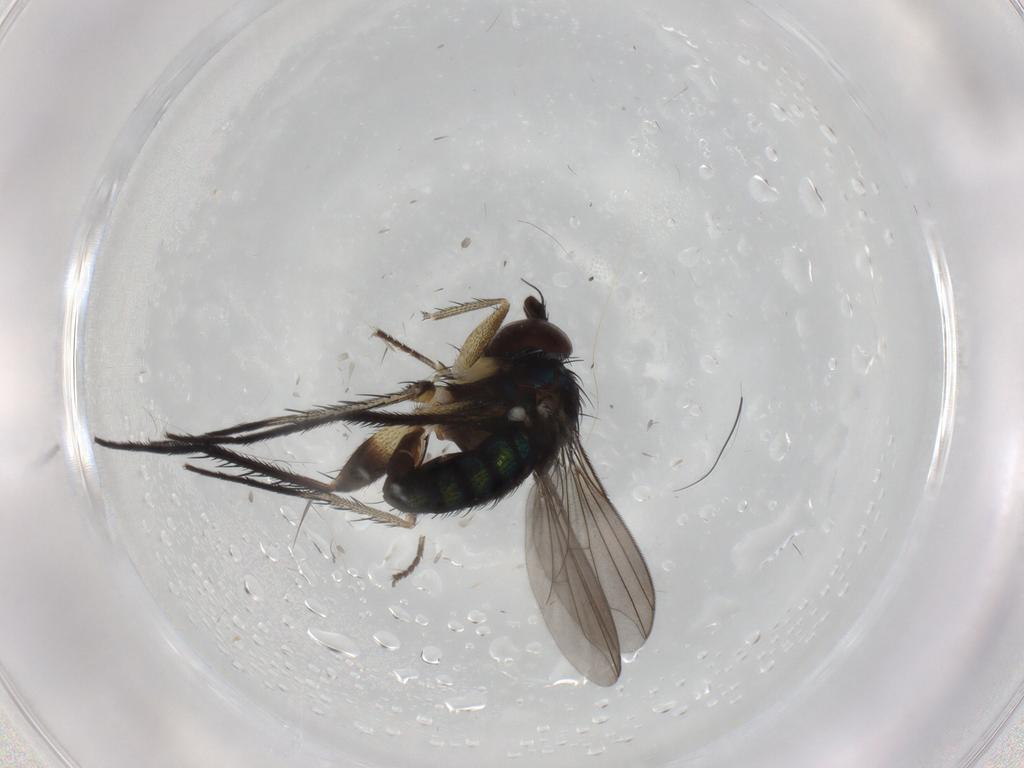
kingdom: Animalia
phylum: Arthropoda
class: Insecta
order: Diptera
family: Dolichopodidae
